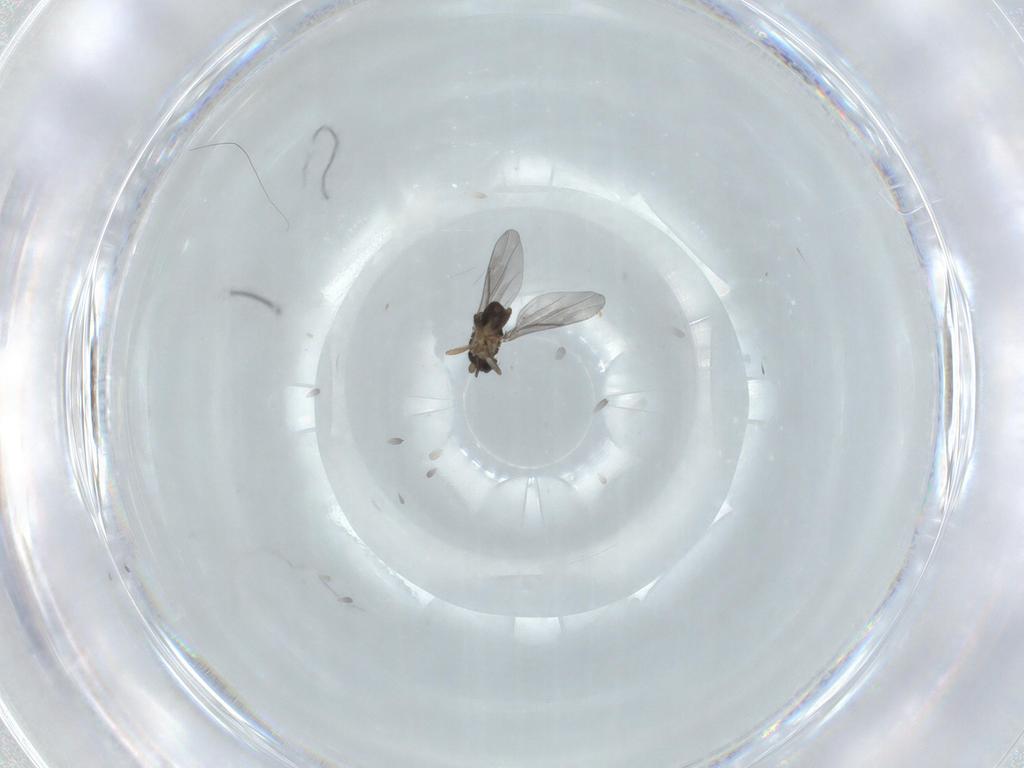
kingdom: Animalia
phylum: Arthropoda
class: Insecta
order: Diptera
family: Psychodidae
